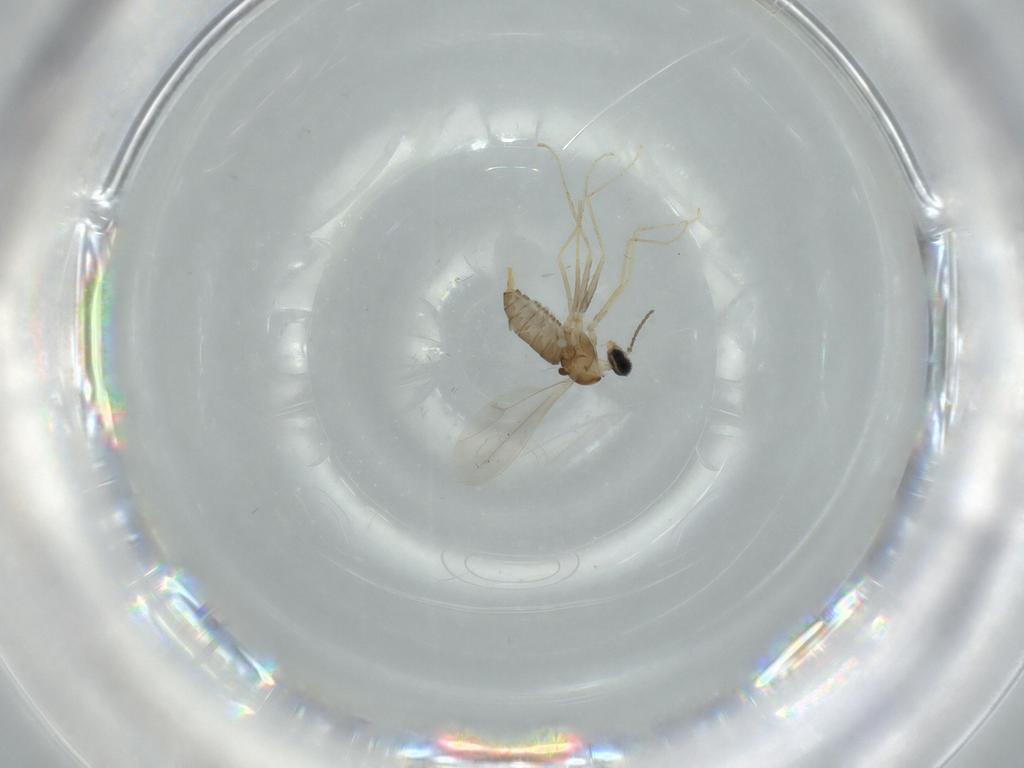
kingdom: Animalia
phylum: Arthropoda
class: Insecta
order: Diptera
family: Cecidomyiidae
